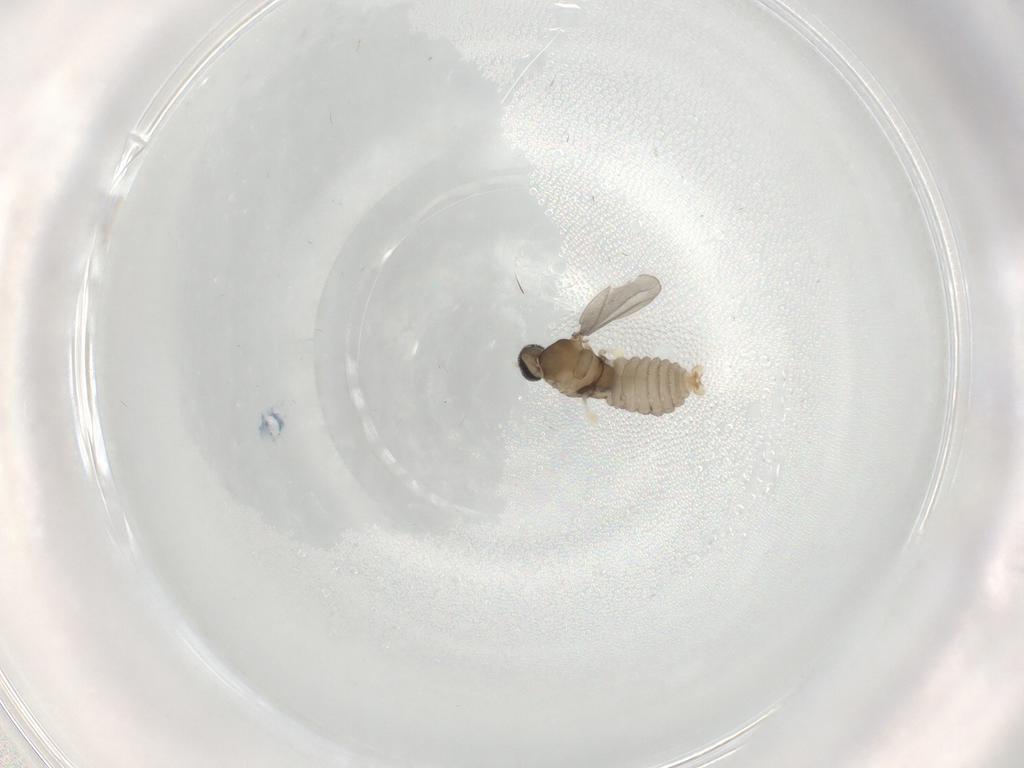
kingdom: Animalia
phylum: Arthropoda
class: Insecta
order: Diptera
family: Cecidomyiidae
